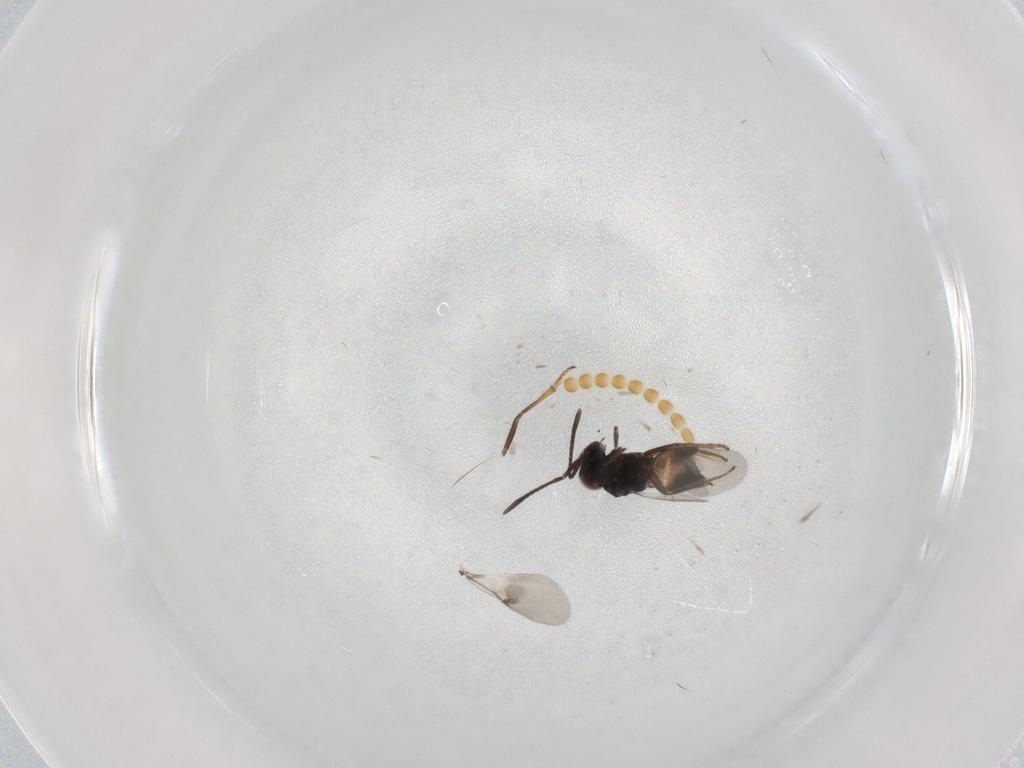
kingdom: Animalia
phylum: Arthropoda
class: Insecta
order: Hymenoptera
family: Encyrtidae
